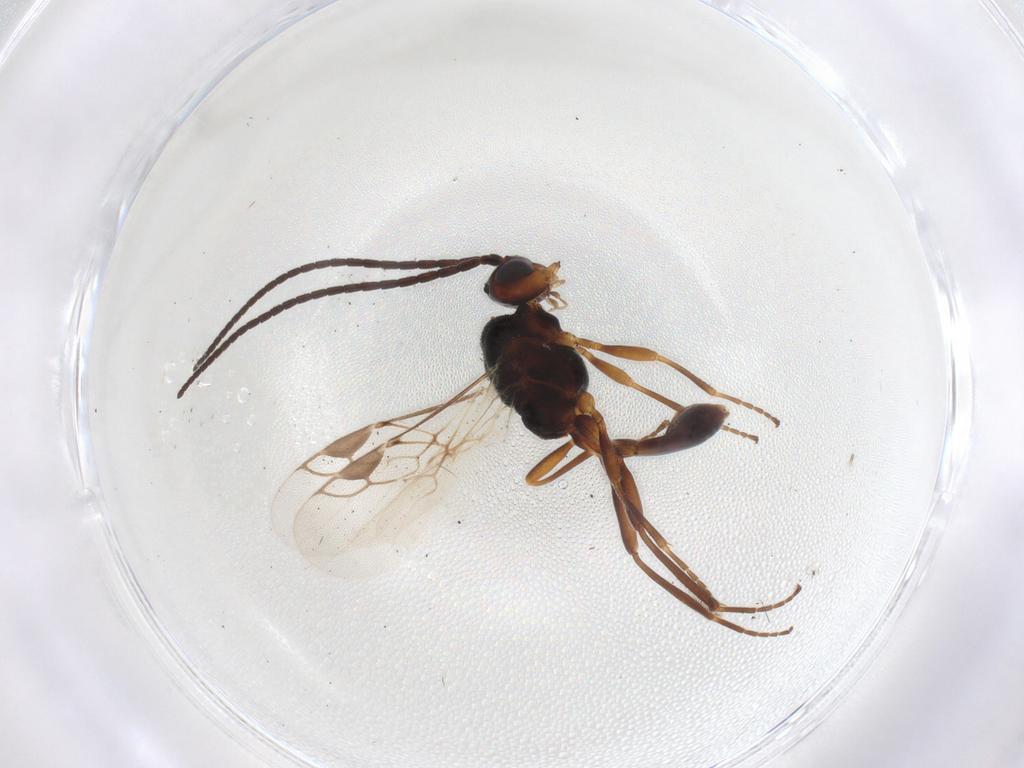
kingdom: Animalia
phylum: Arthropoda
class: Insecta
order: Hymenoptera
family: Braconidae
